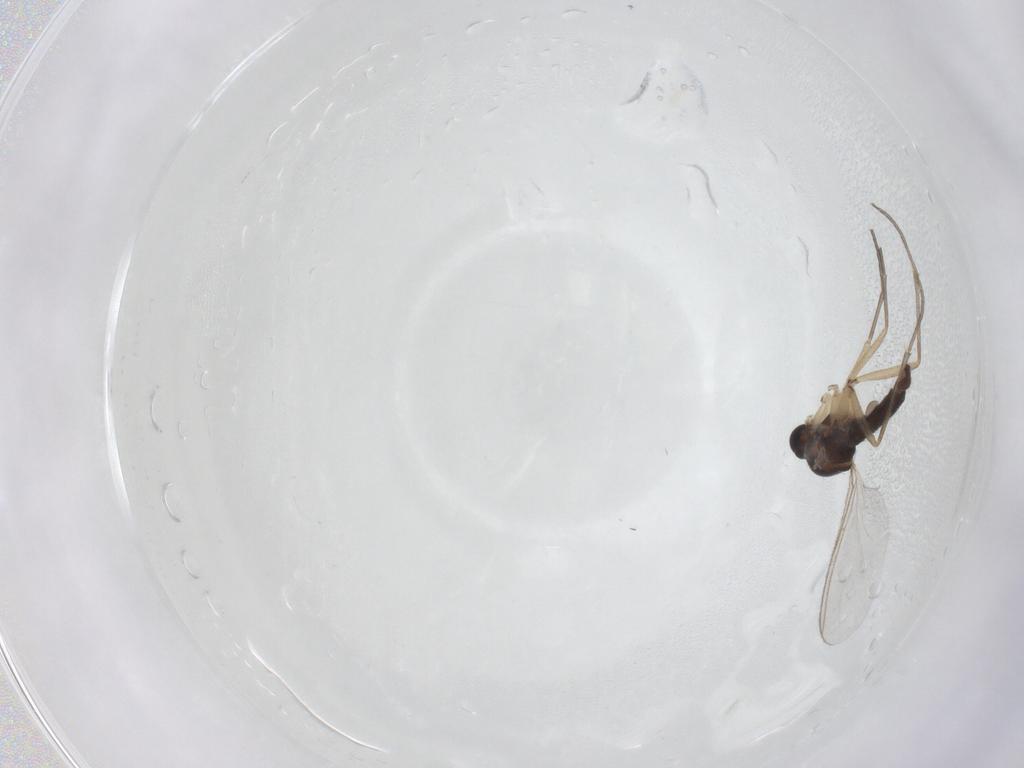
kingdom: Animalia
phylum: Arthropoda
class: Insecta
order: Diptera
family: Sciaridae
